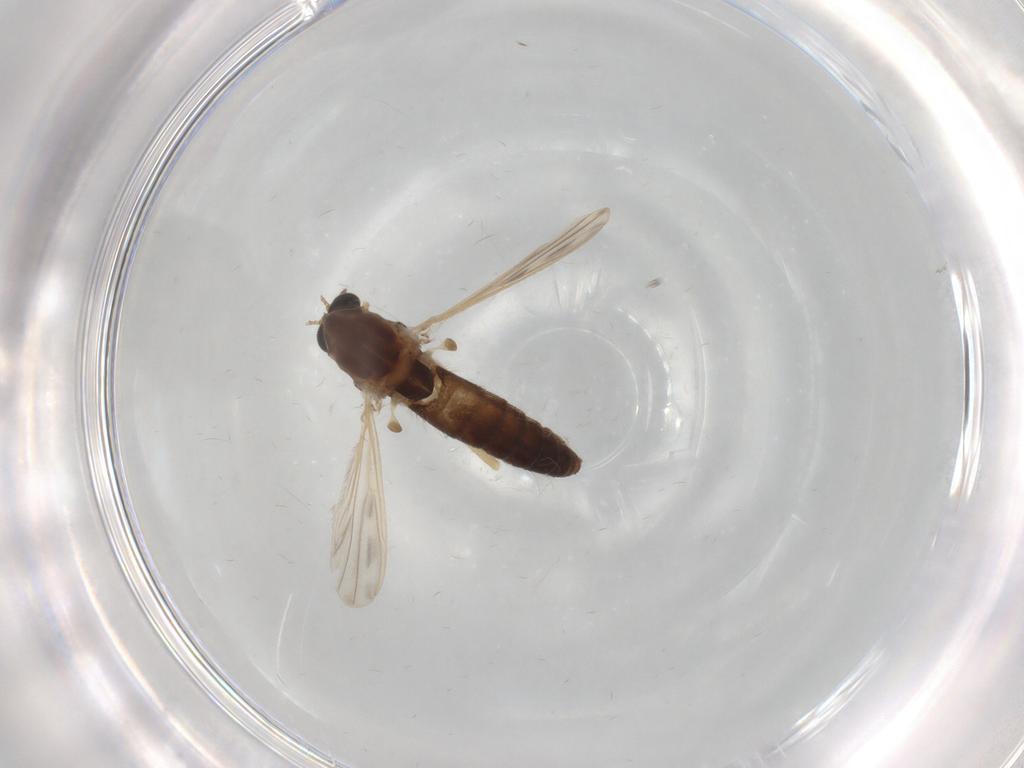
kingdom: Animalia
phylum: Arthropoda
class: Insecta
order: Diptera
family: Chironomidae
